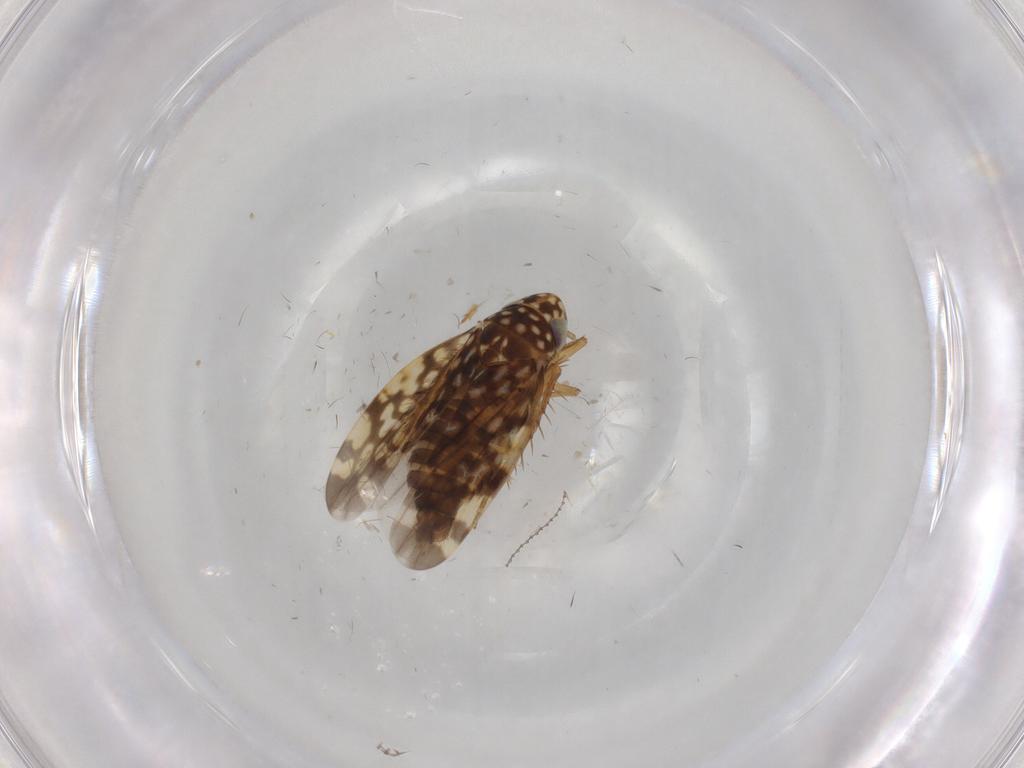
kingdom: Animalia
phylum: Arthropoda
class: Insecta
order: Hemiptera
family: Cicadellidae
